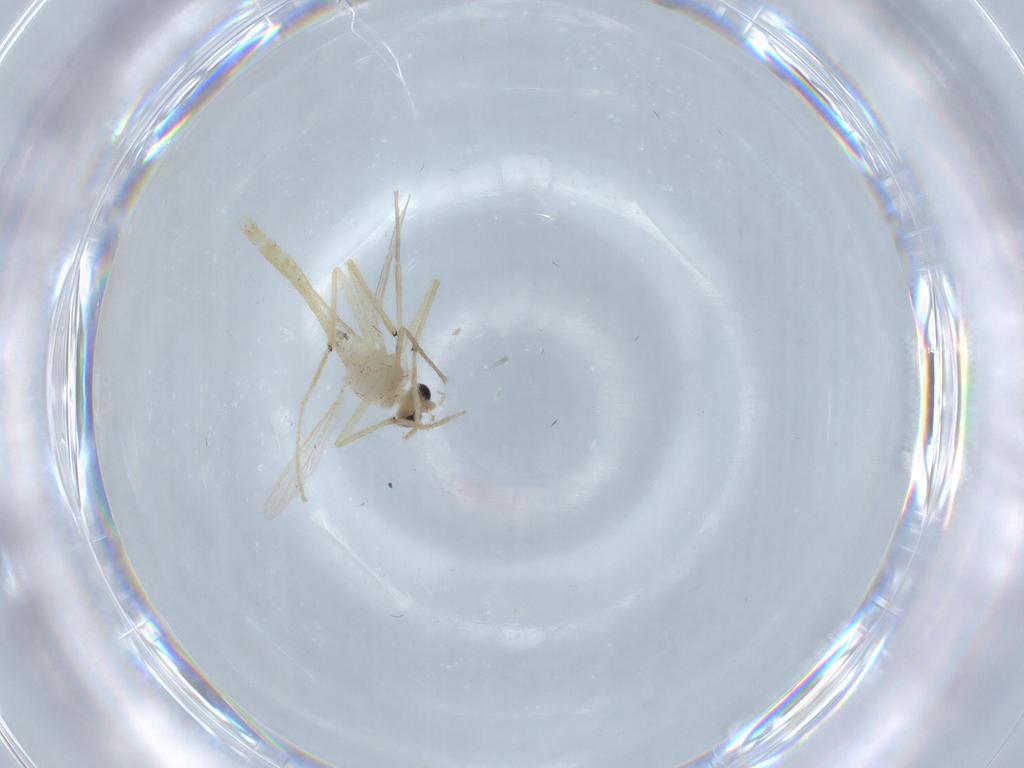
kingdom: Animalia
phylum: Arthropoda
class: Insecta
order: Diptera
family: Chironomidae
